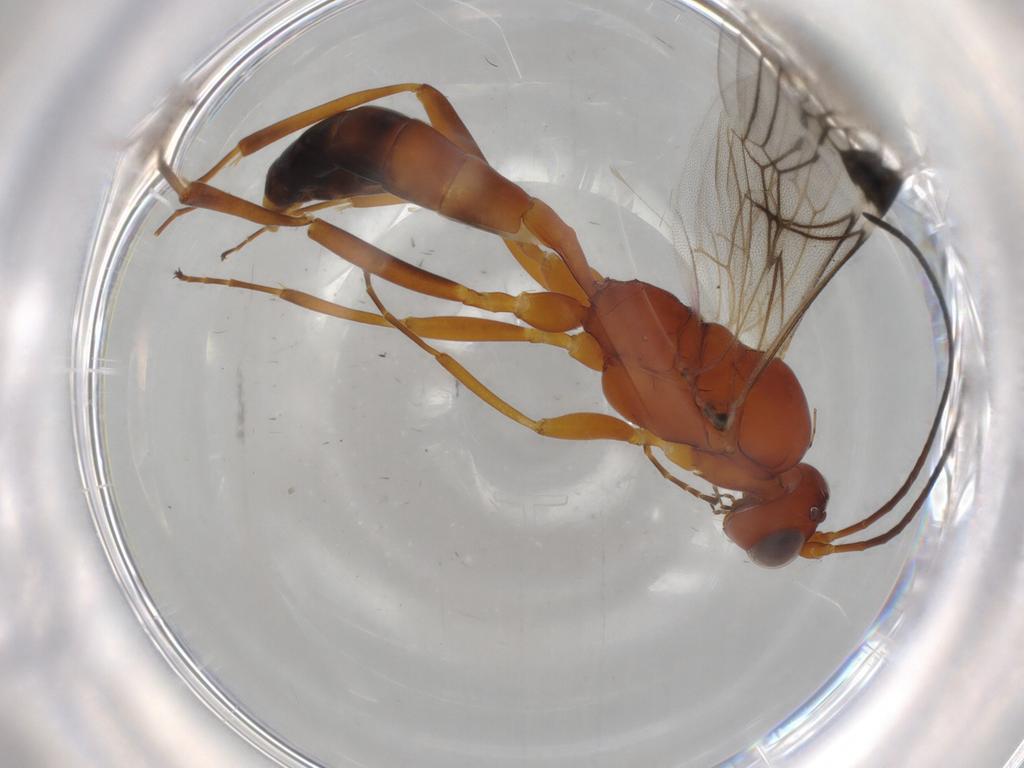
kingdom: Animalia
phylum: Arthropoda
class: Insecta
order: Hymenoptera
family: Ichneumonidae
